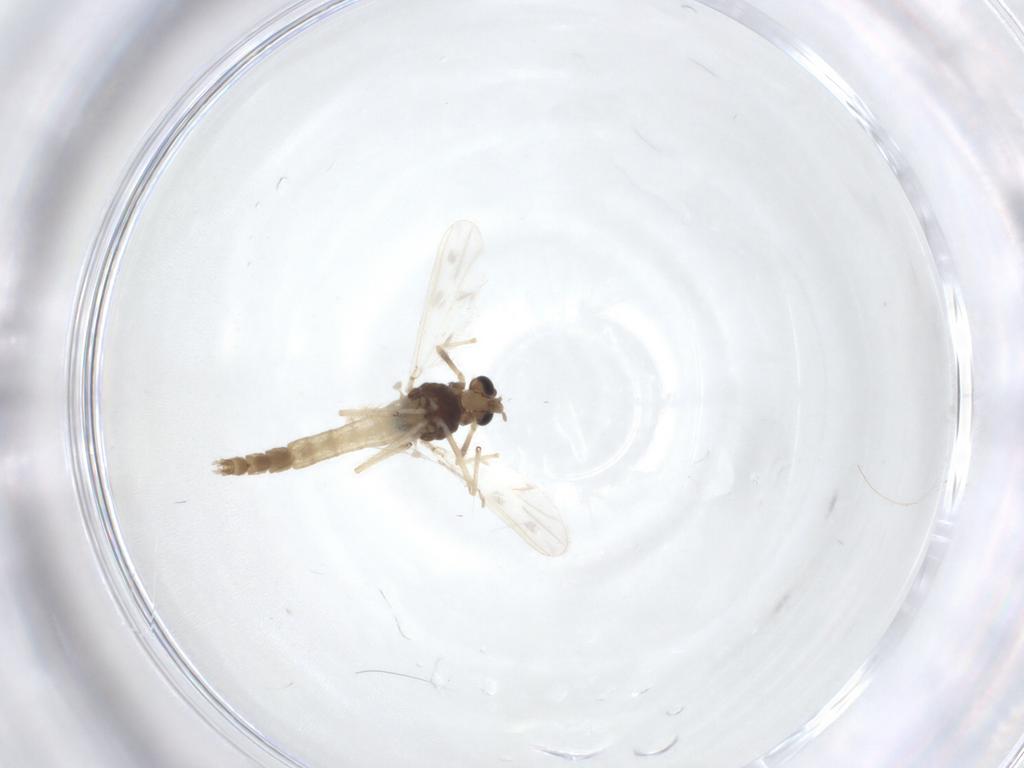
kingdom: Animalia
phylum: Arthropoda
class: Insecta
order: Diptera
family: Chironomidae
